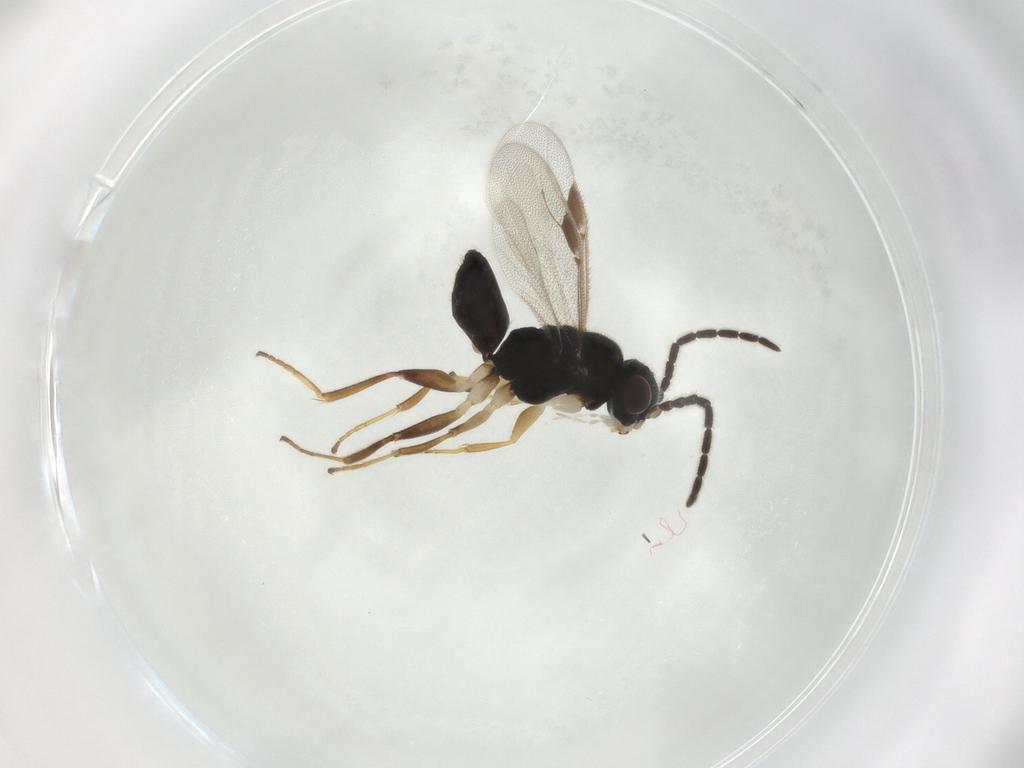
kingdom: Animalia
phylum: Arthropoda
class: Insecta
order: Hymenoptera
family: Dryinidae
